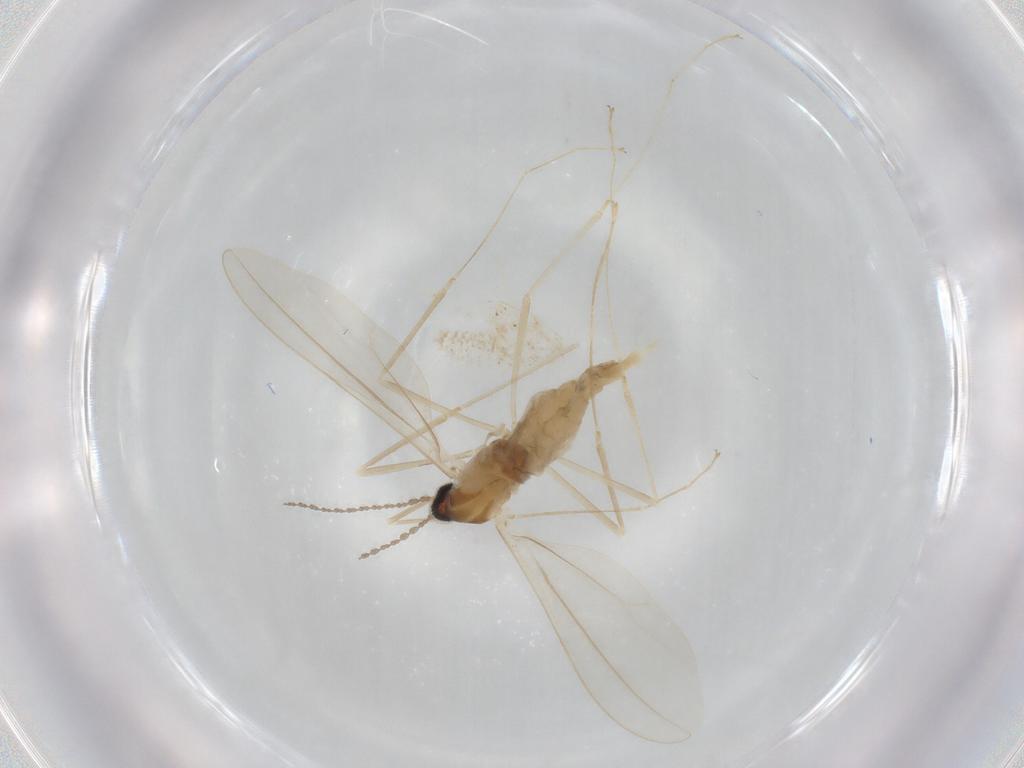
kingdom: Animalia
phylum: Arthropoda
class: Insecta
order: Diptera
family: Cecidomyiidae
